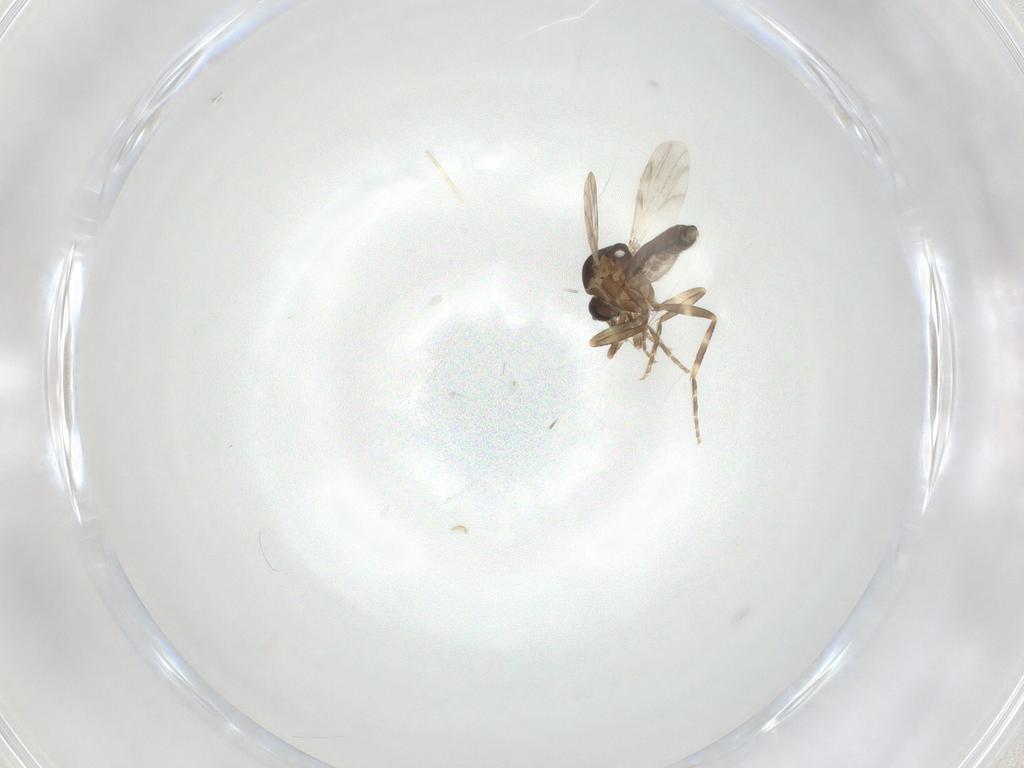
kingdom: Animalia
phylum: Arthropoda
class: Insecta
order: Diptera
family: Ceratopogonidae
